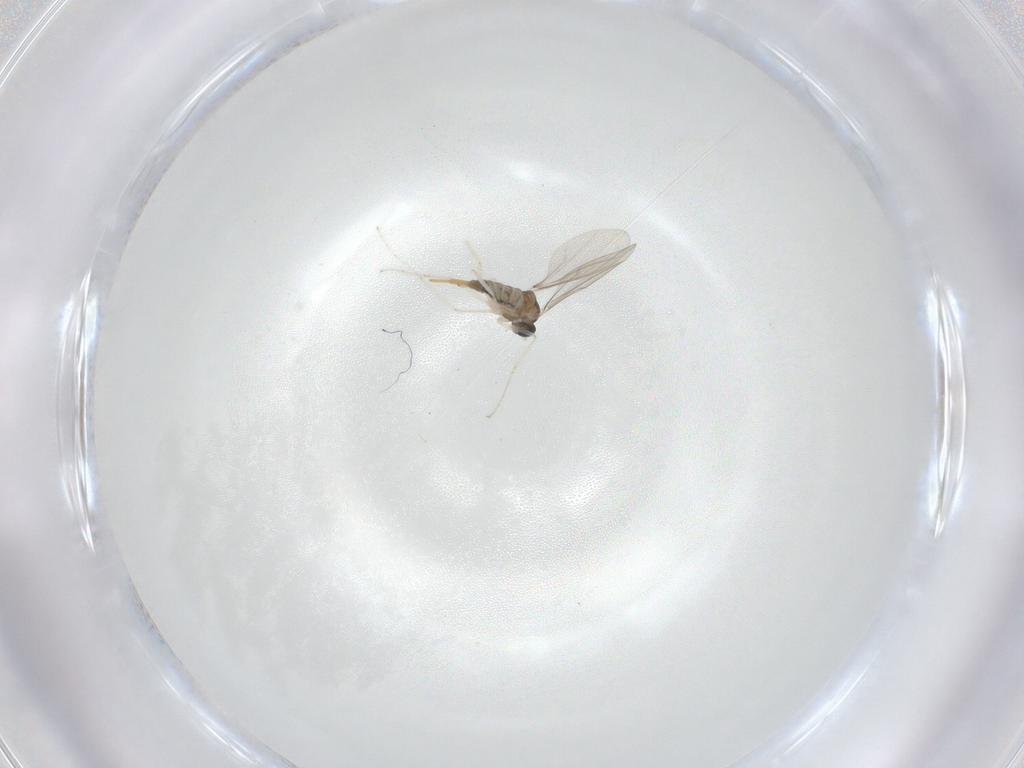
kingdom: Animalia
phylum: Arthropoda
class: Insecta
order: Diptera
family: Cecidomyiidae
